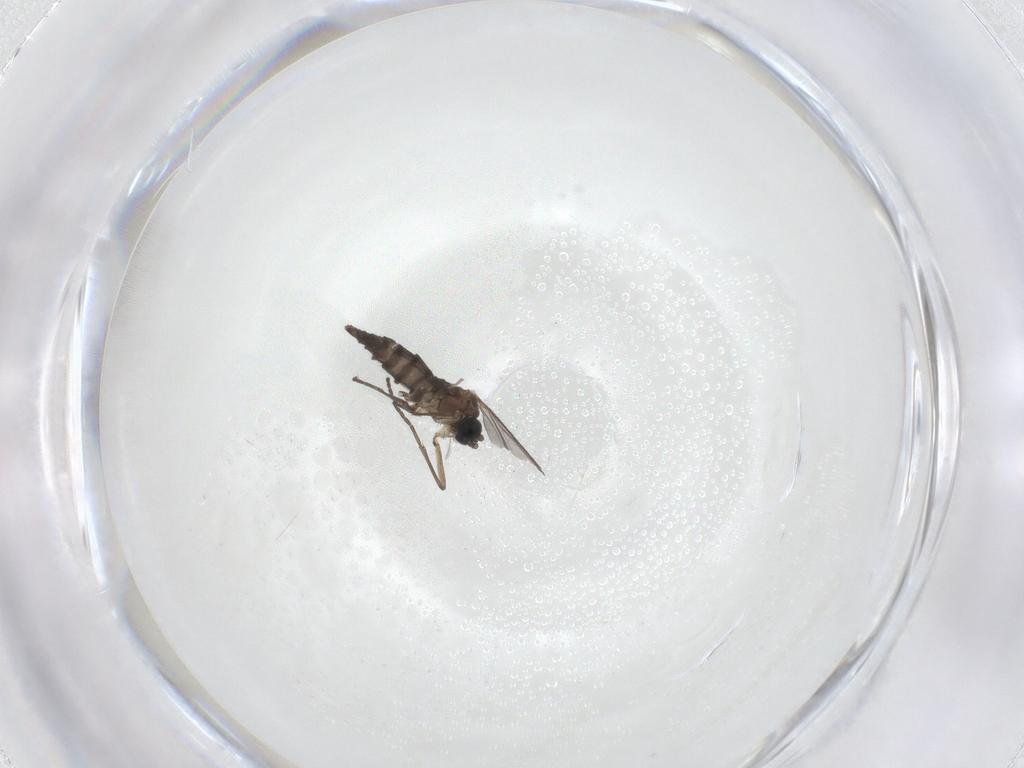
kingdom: Animalia
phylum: Arthropoda
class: Insecta
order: Diptera
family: Sciaridae
